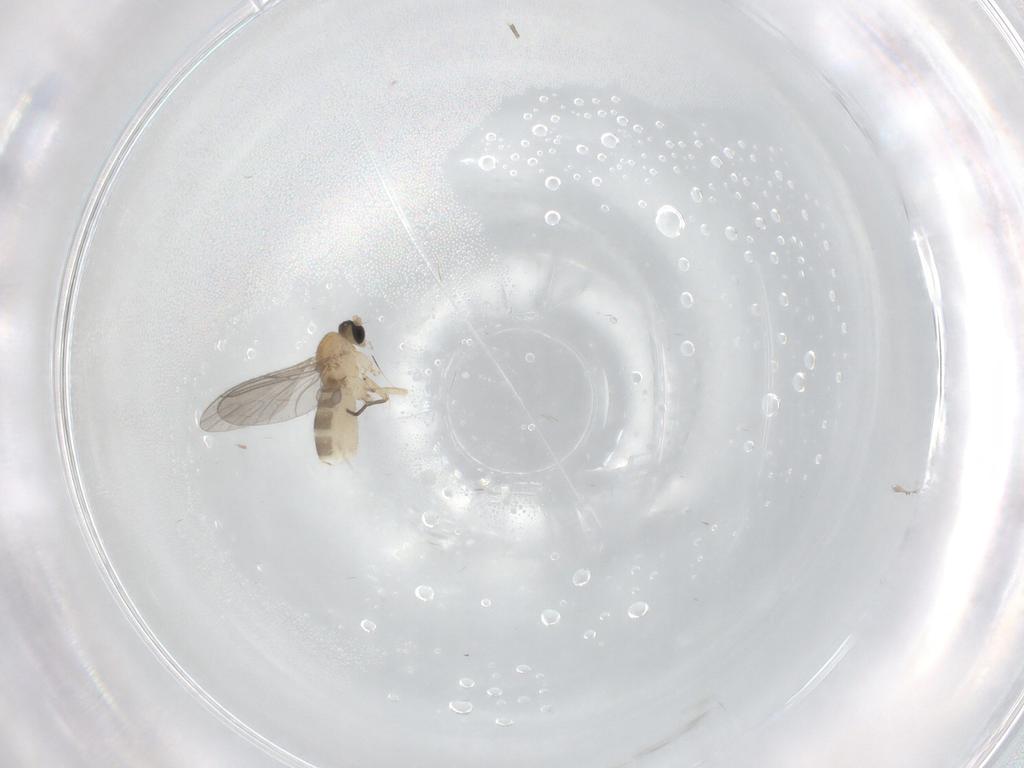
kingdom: Animalia
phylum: Arthropoda
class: Insecta
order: Diptera
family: Sciaridae
